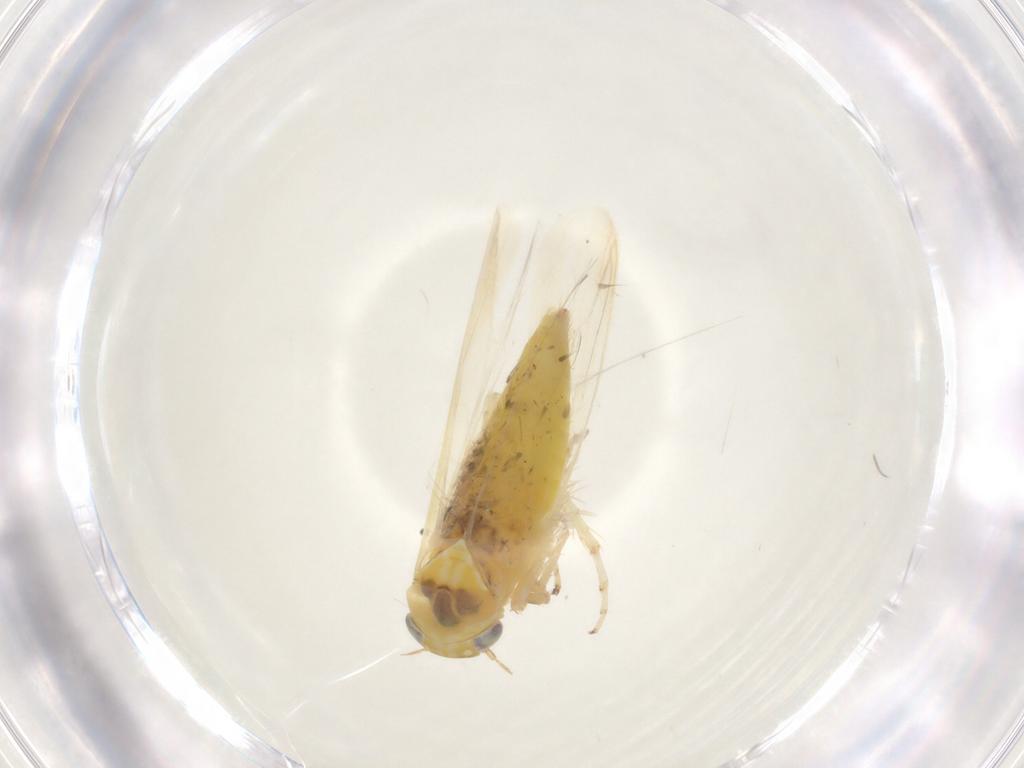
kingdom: Animalia
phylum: Arthropoda
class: Insecta
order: Hemiptera
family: Cicadellidae
